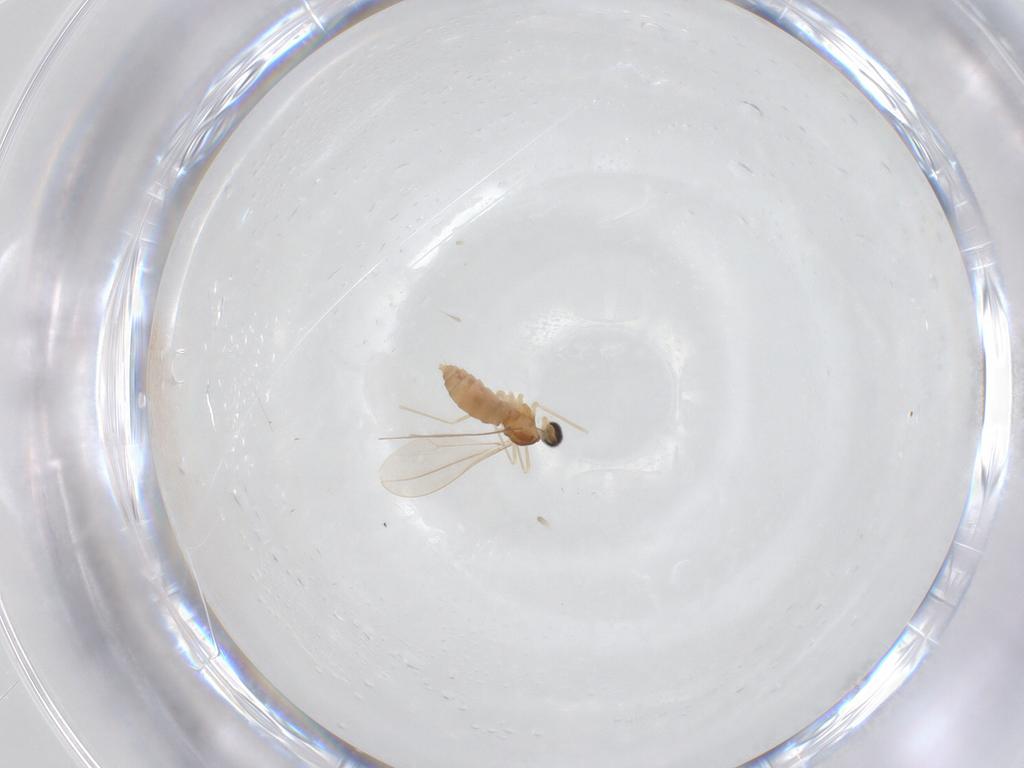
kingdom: Animalia
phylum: Arthropoda
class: Insecta
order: Diptera
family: Cecidomyiidae
